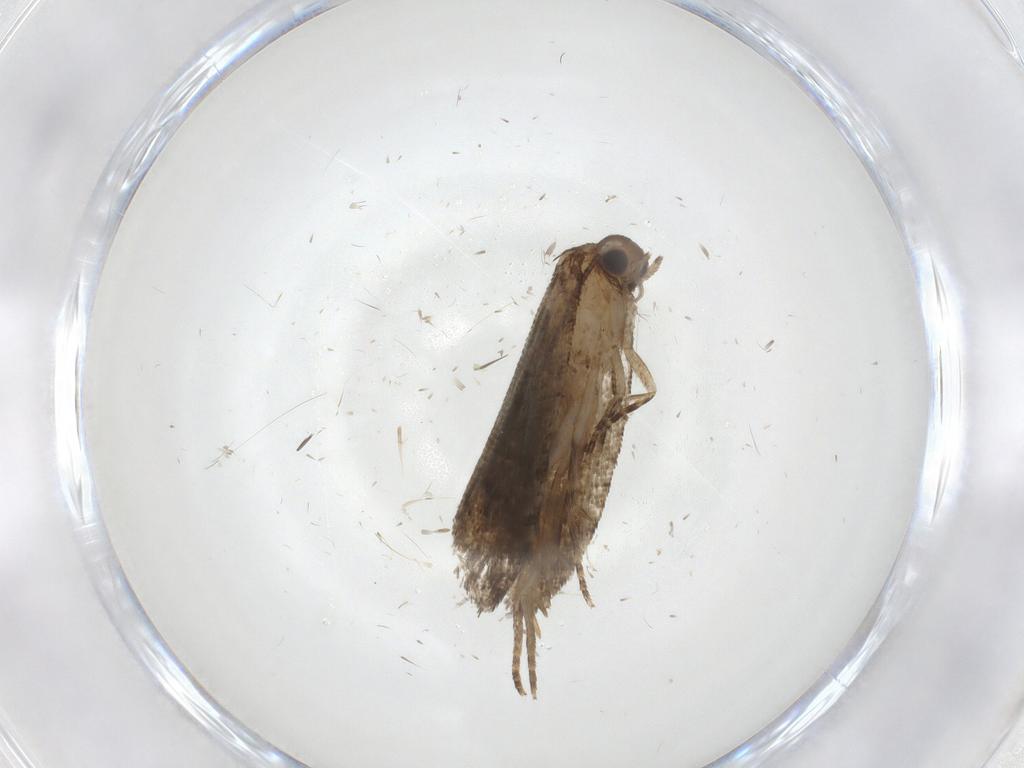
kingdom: Animalia
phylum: Arthropoda
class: Insecta
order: Lepidoptera
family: Tortricidae
